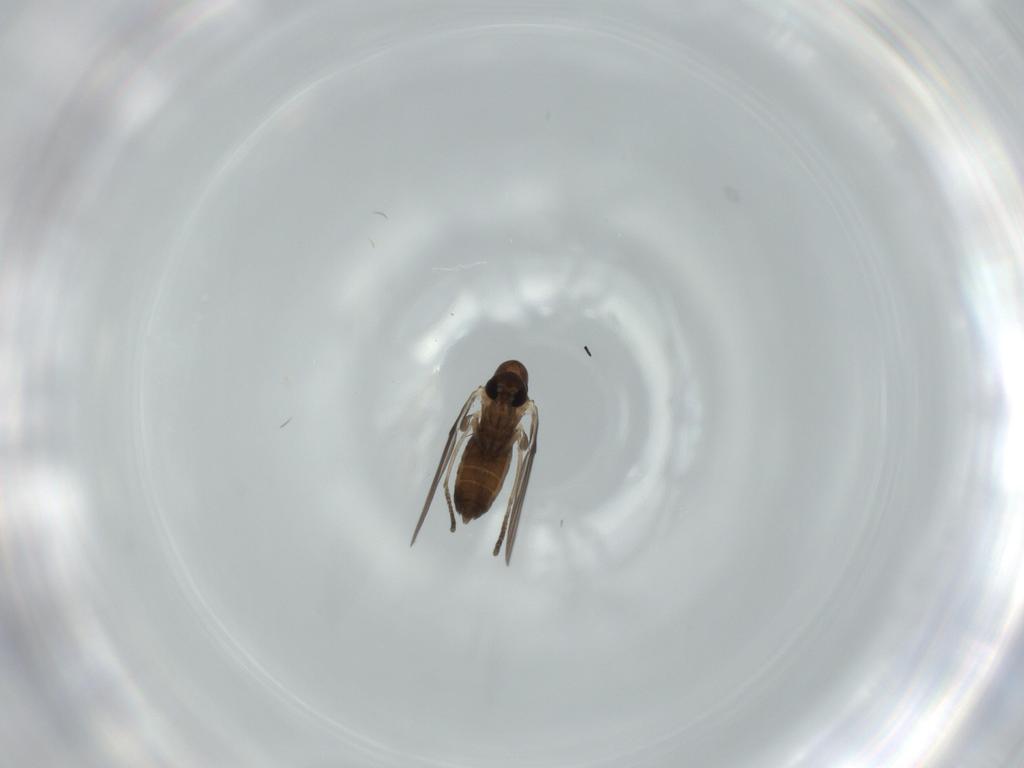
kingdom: Animalia
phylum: Arthropoda
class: Insecta
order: Diptera
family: Psychodidae
